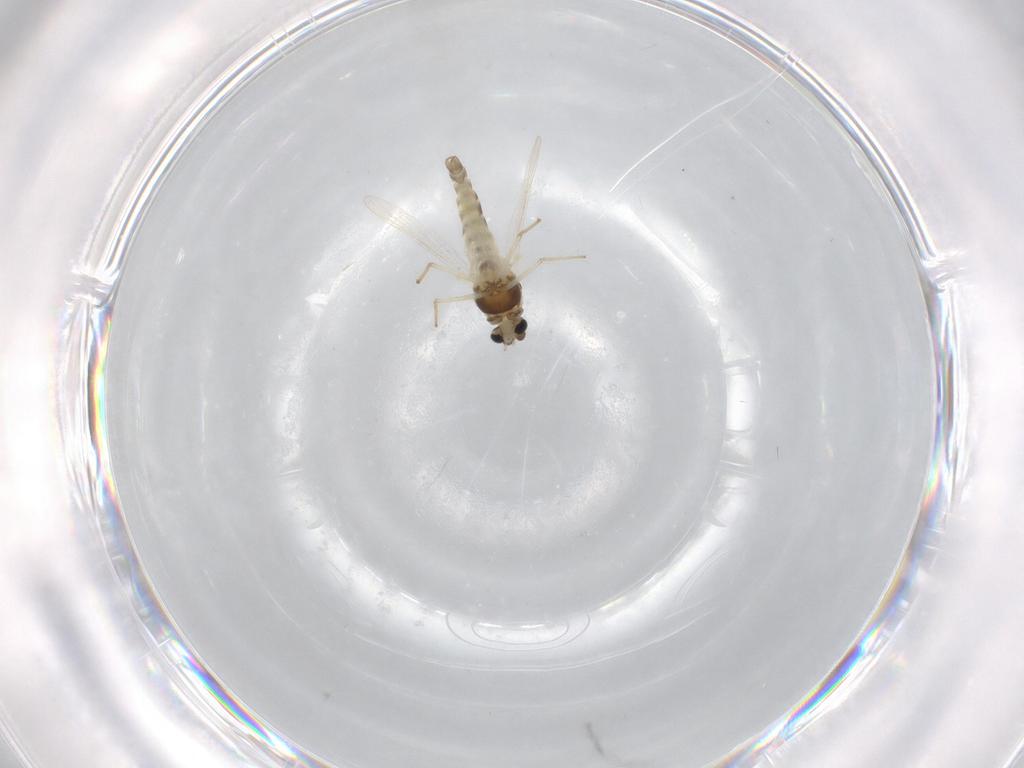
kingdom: Animalia
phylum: Arthropoda
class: Insecta
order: Diptera
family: Chironomidae
